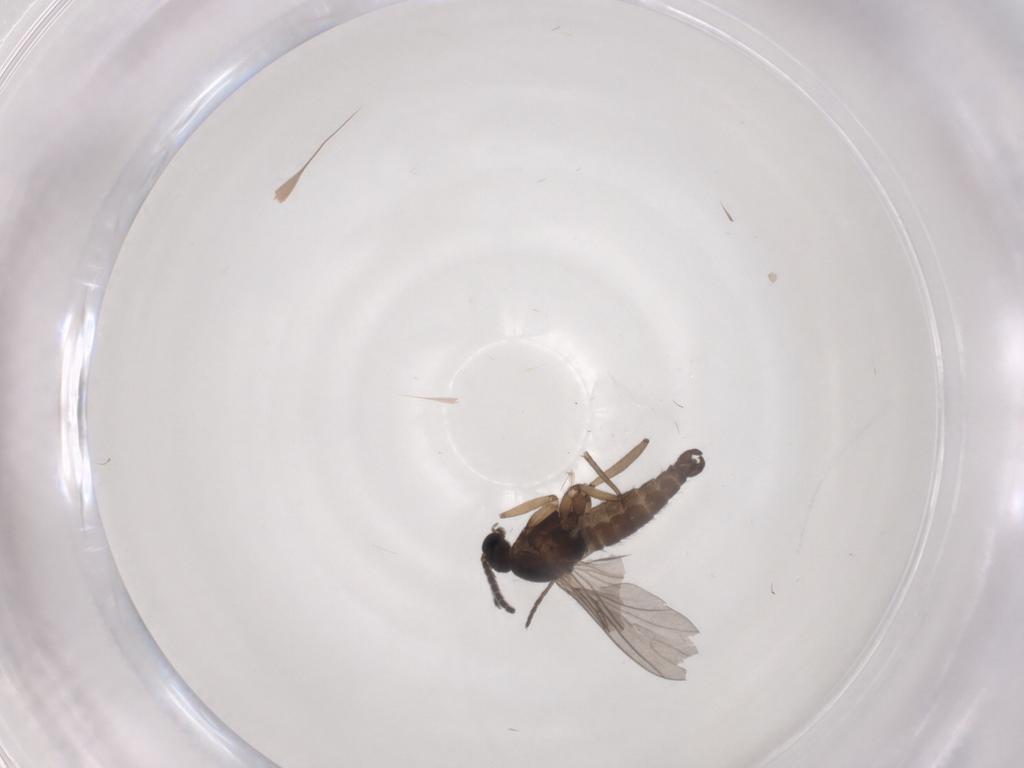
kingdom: Animalia
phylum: Arthropoda
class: Insecta
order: Diptera
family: Sciaridae
